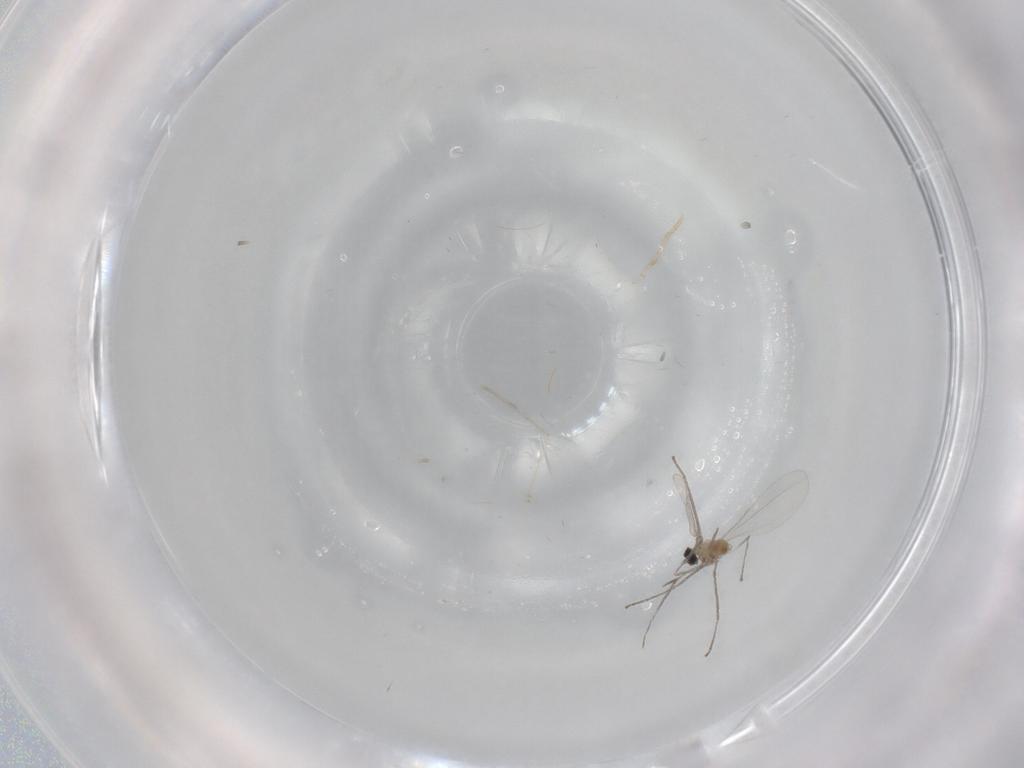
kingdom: Animalia
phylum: Arthropoda
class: Insecta
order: Diptera
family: Cecidomyiidae
